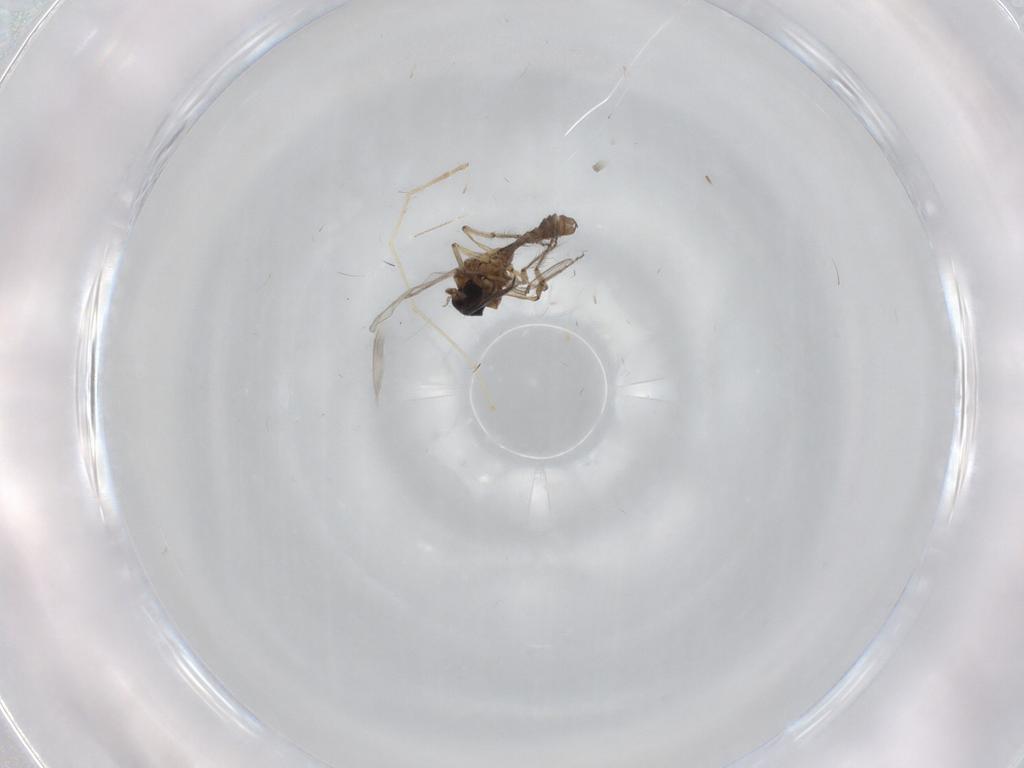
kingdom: Animalia
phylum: Arthropoda
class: Insecta
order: Diptera
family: Ceratopogonidae
